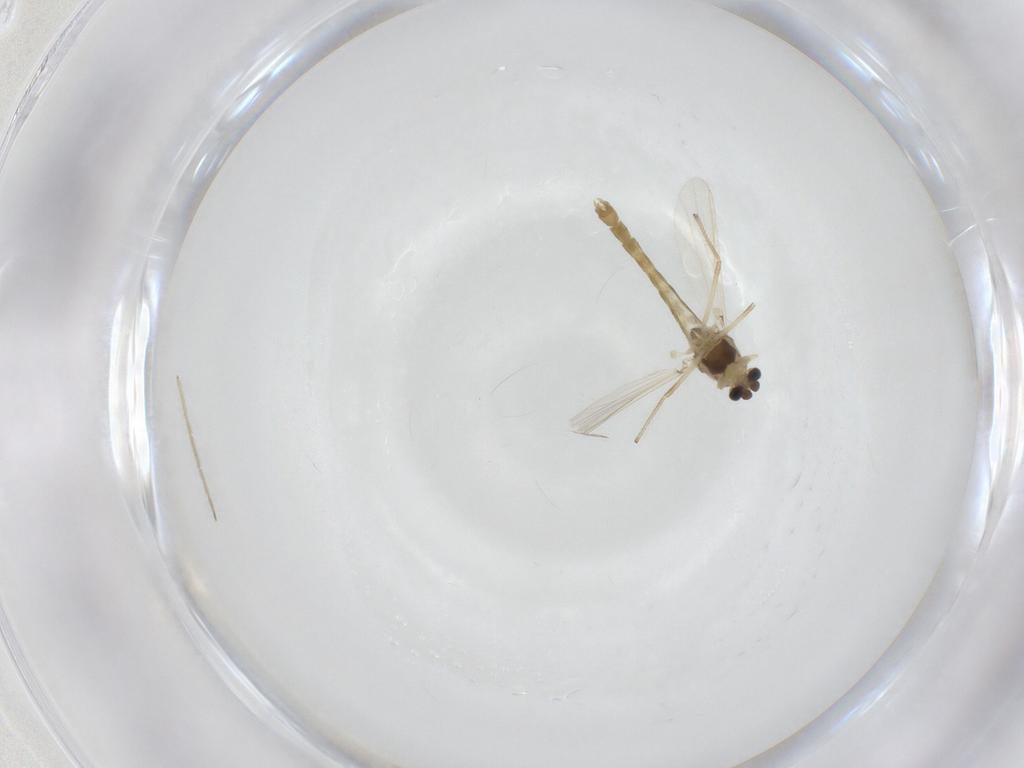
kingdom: Animalia
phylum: Arthropoda
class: Insecta
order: Diptera
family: Chironomidae
